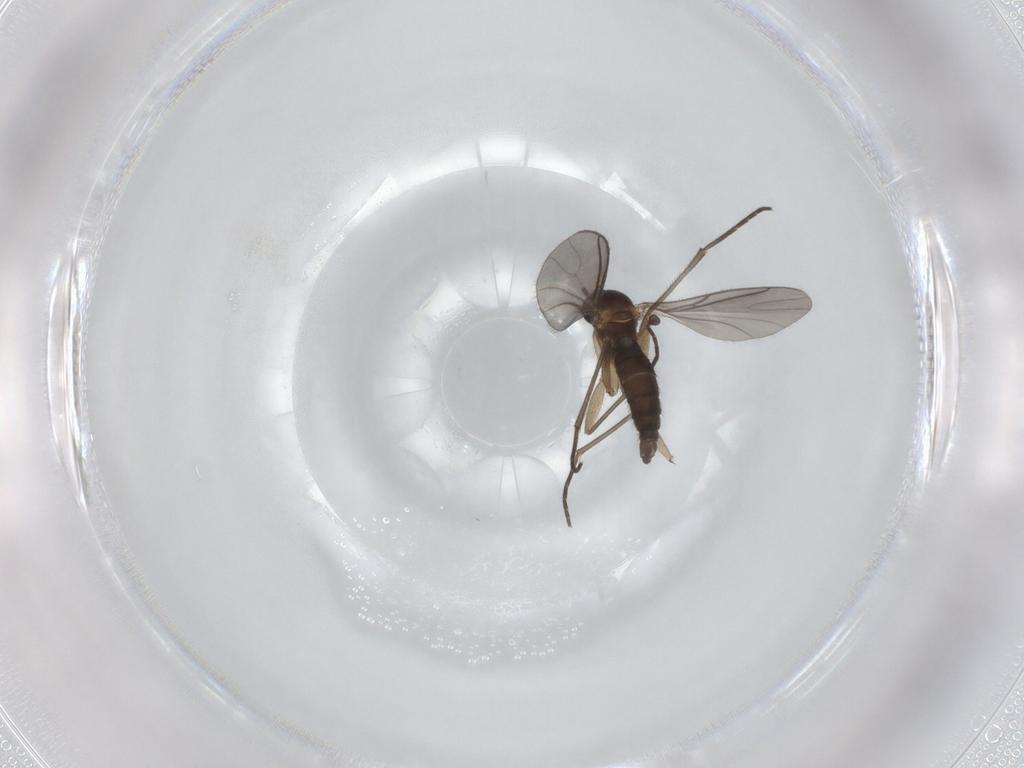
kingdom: Animalia
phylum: Arthropoda
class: Insecta
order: Diptera
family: Sciaridae
